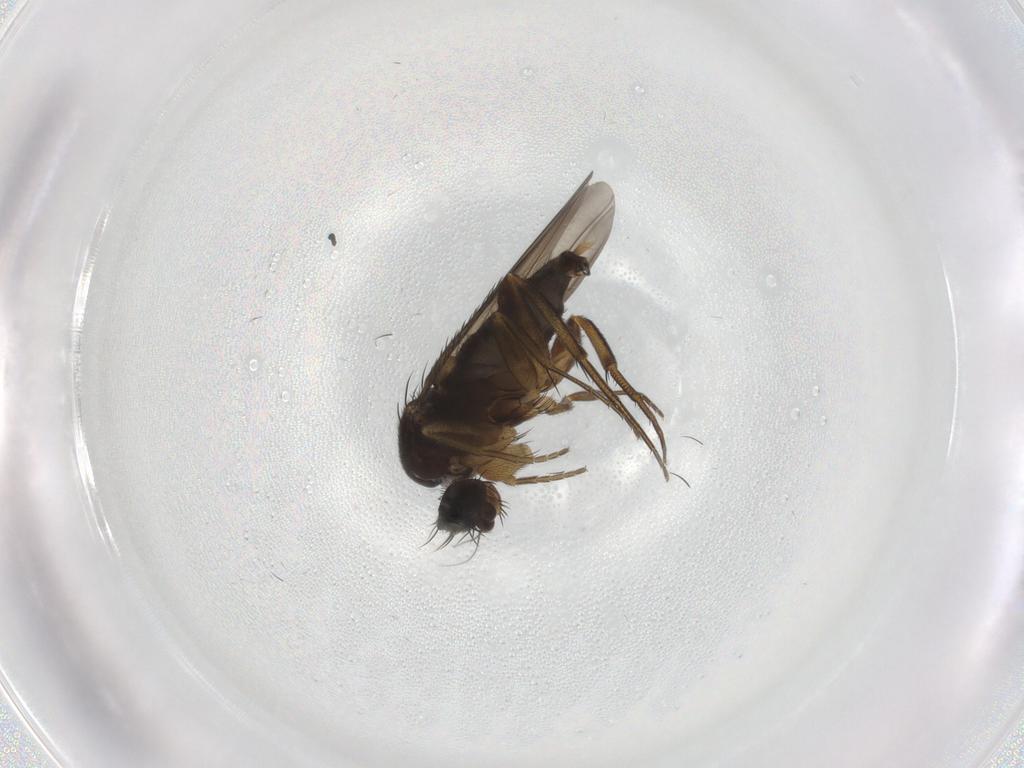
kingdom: Animalia
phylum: Arthropoda
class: Insecta
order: Diptera
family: Phoridae
